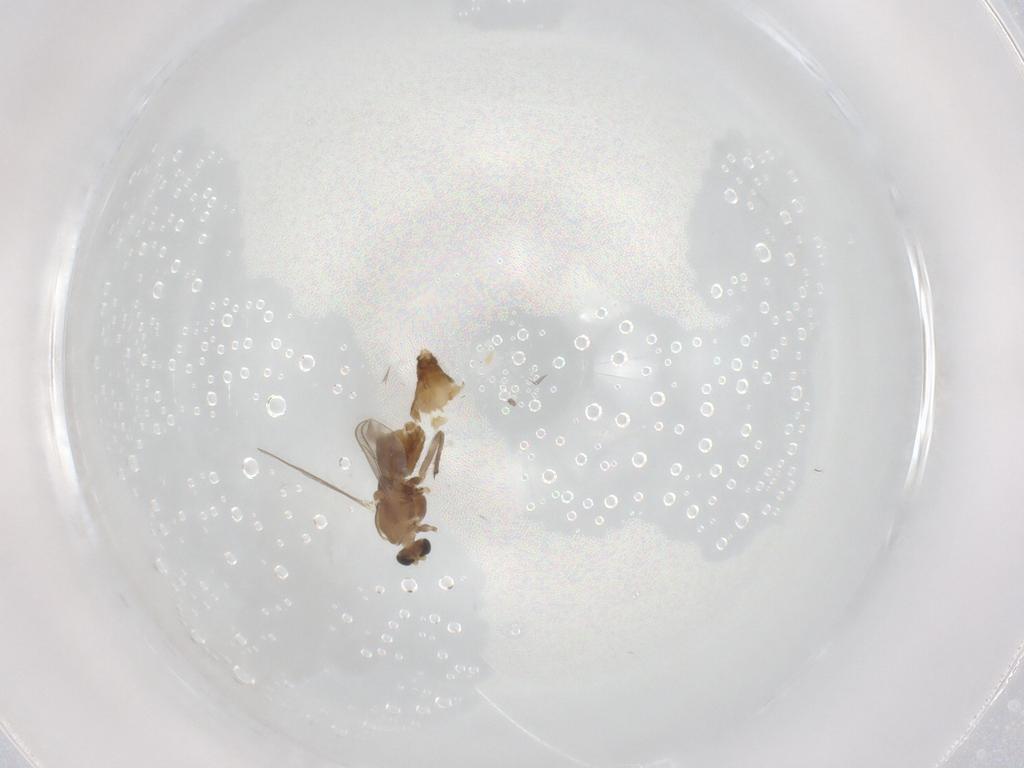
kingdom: Animalia
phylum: Arthropoda
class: Insecta
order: Diptera
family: Chironomidae
